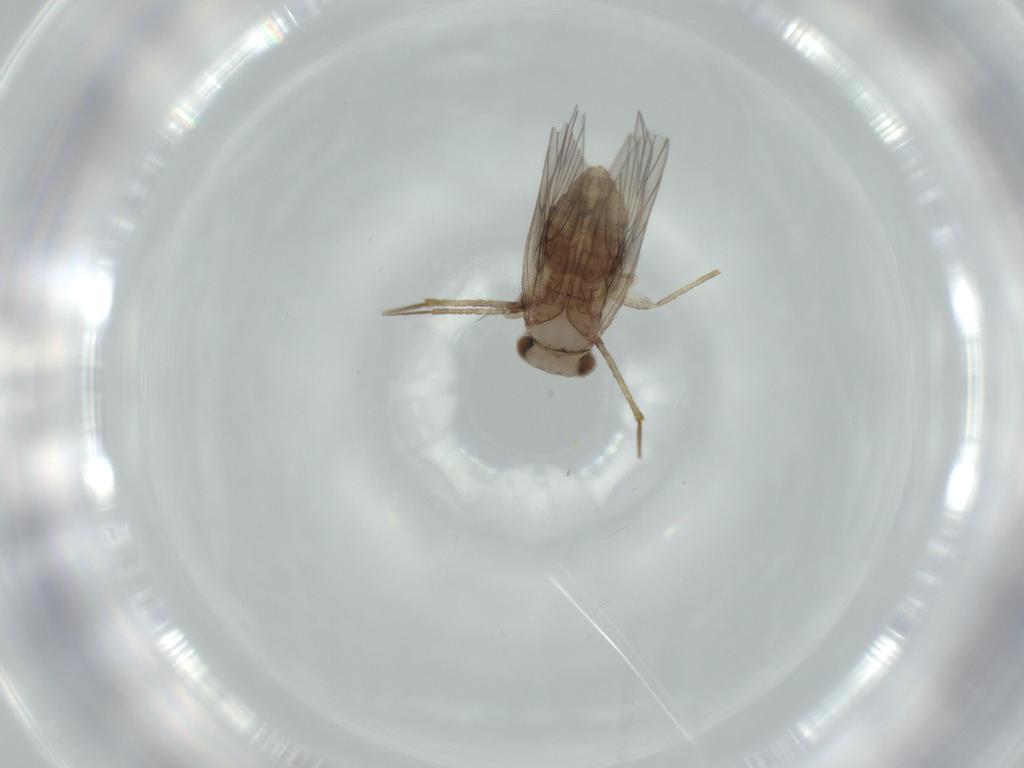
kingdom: Animalia
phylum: Arthropoda
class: Insecta
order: Psocodea
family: Lepidopsocidae
